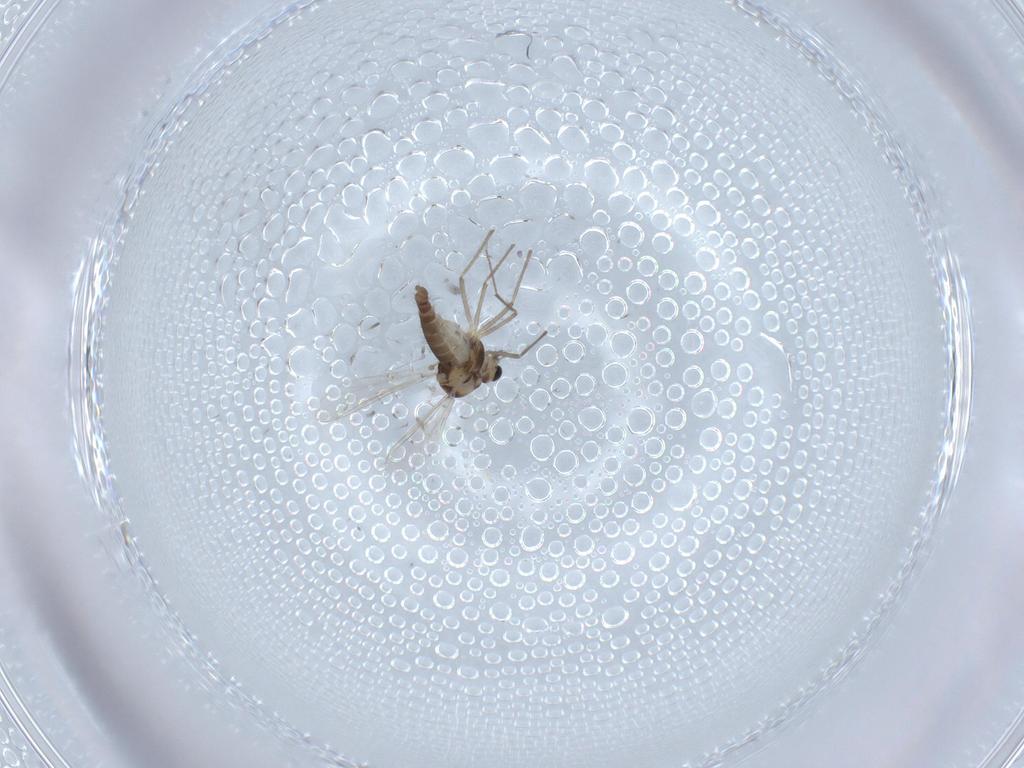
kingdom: Animalia
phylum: Arthropoda
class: Insecta
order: Diptera
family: Chironomidae
